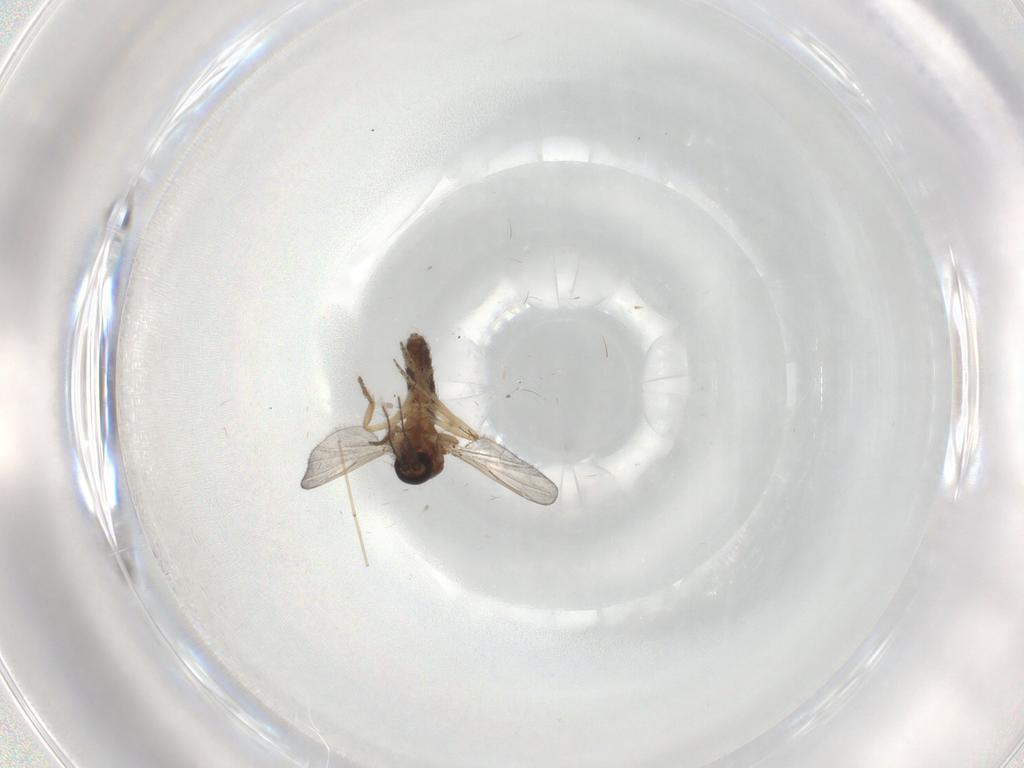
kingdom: Animalia
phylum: Arthropoda
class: Insecta
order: Diptera
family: Ceratopogonidae
